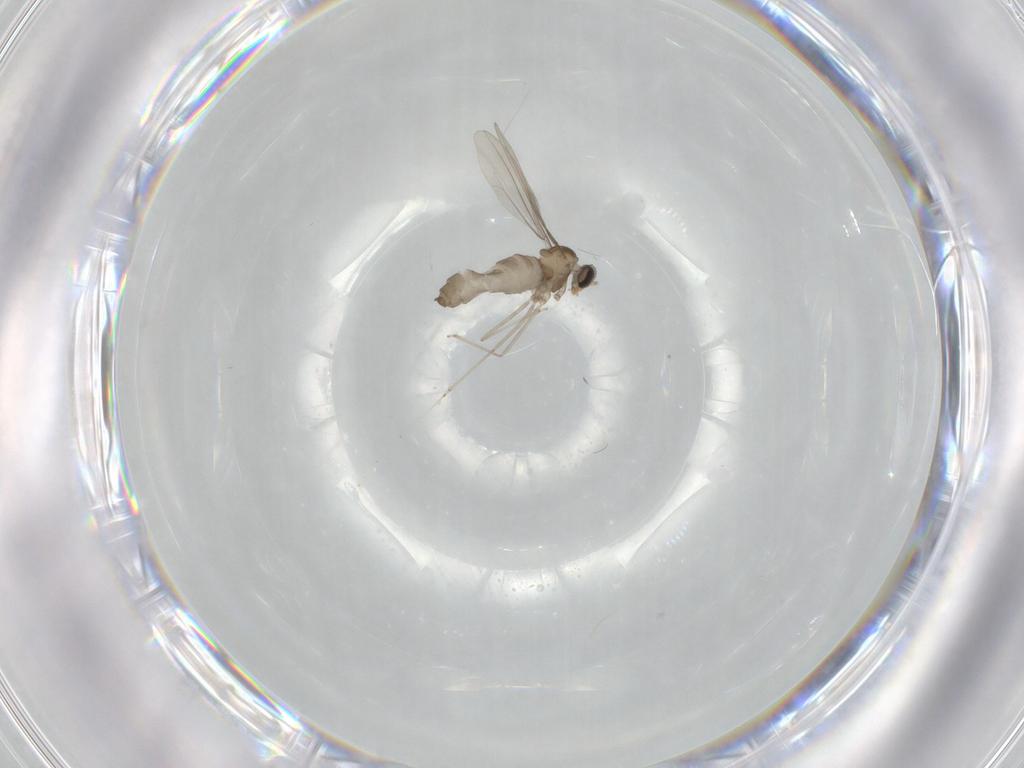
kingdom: Animalia
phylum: Arthropoda
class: Insecta
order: Diptera
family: Cecidomyiidae
